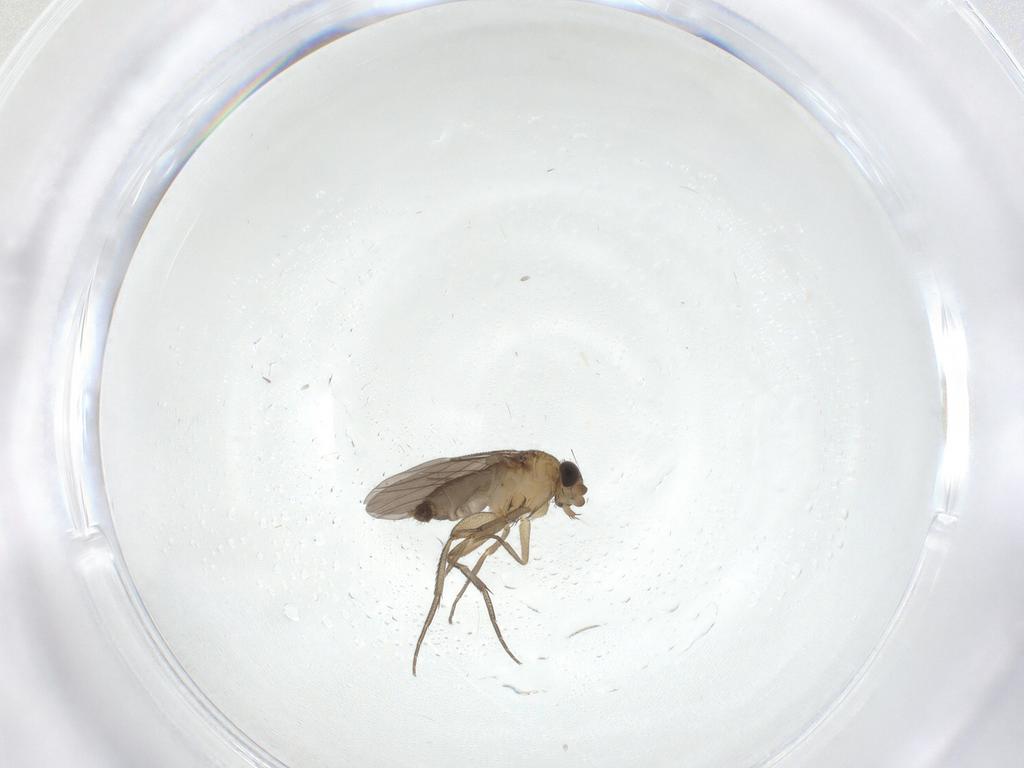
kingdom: Animalia
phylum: Arthropoda
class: Insecta
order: Diptera
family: Phoridae
